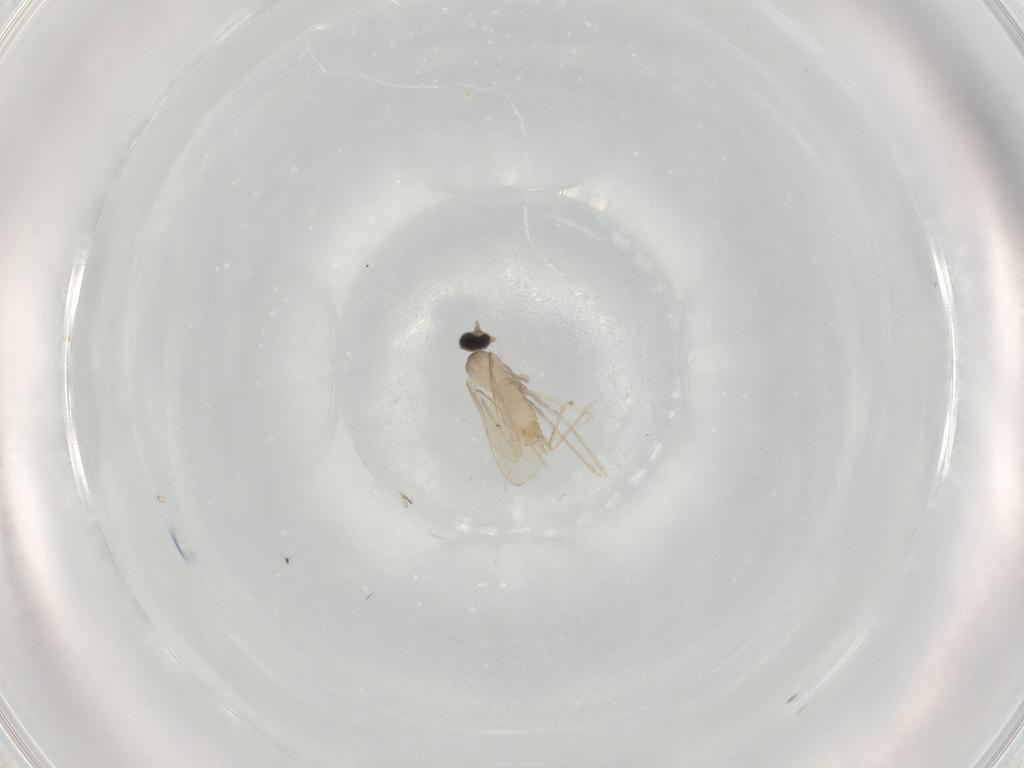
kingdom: Animalia
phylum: Arthropoda
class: Insecta
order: Diptera
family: Cecidomyiidae
